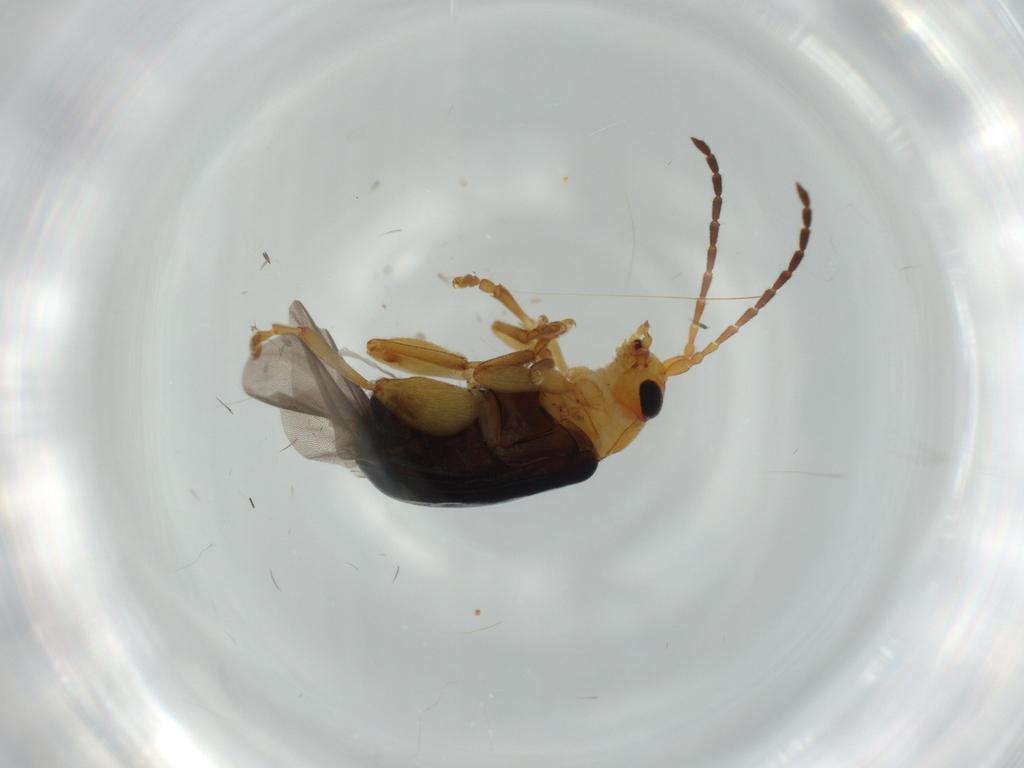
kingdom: Animalia
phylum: Arthropoda
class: Insecta
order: Coleoptera
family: Chrysomelidae
